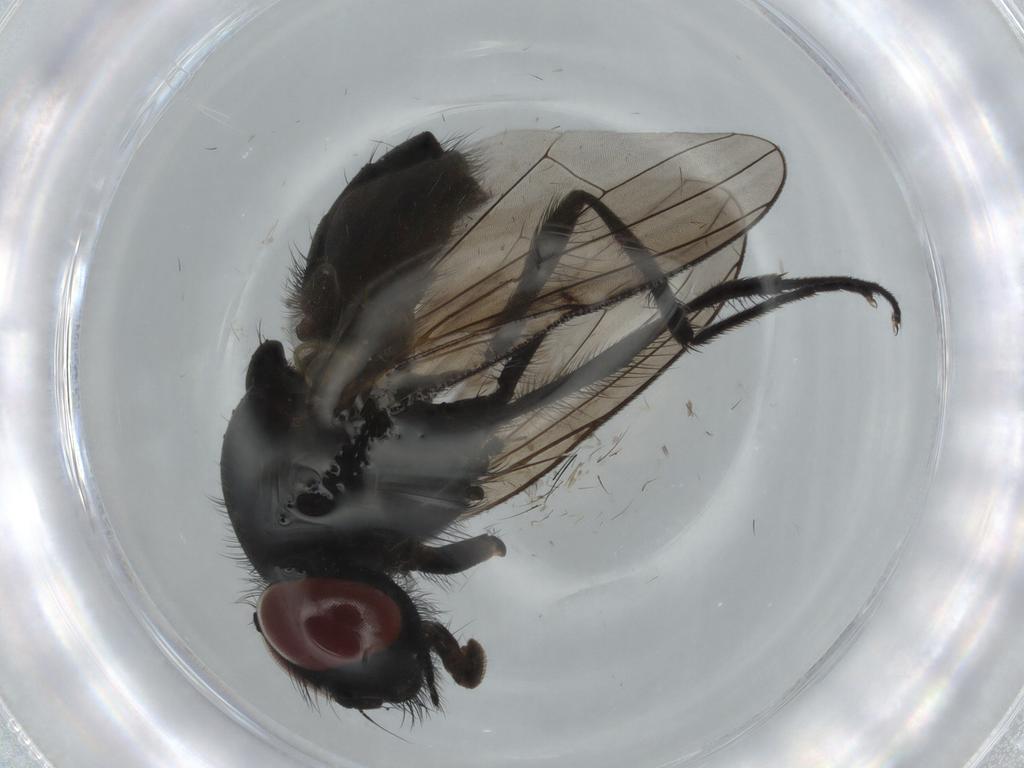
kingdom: Animalia
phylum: Arthropoda
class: Insecta
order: Diptera
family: Muscidae
